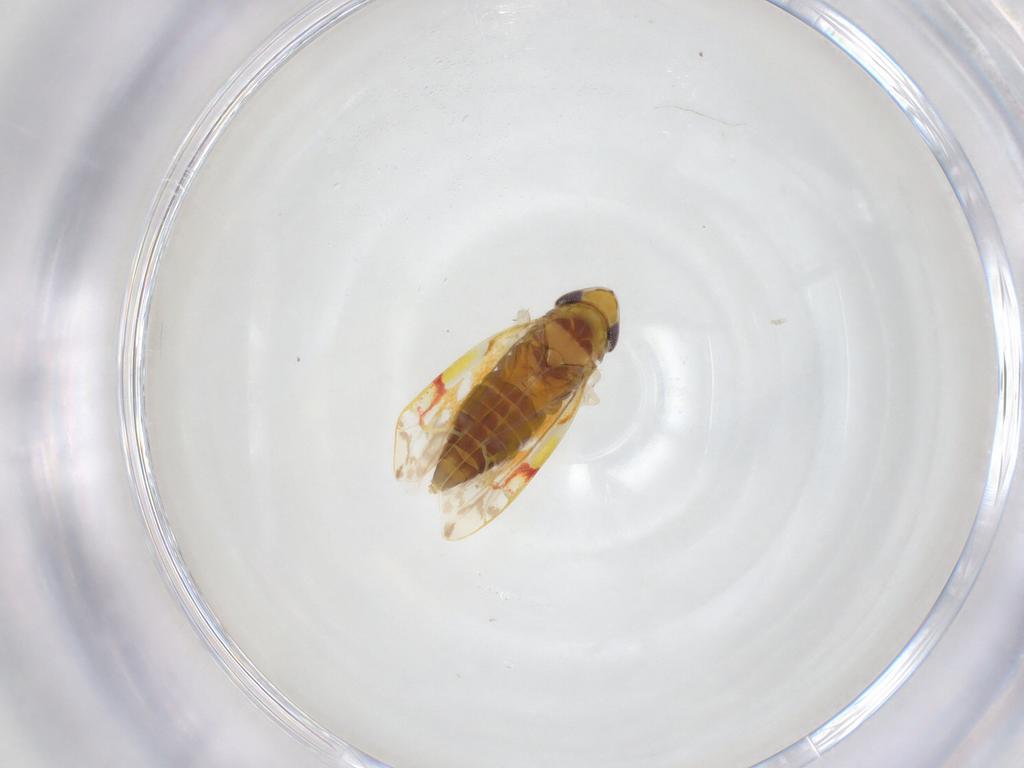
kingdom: Animalia
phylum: Arthropoda
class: Insecta
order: Hemiptera
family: Cicadellidae
